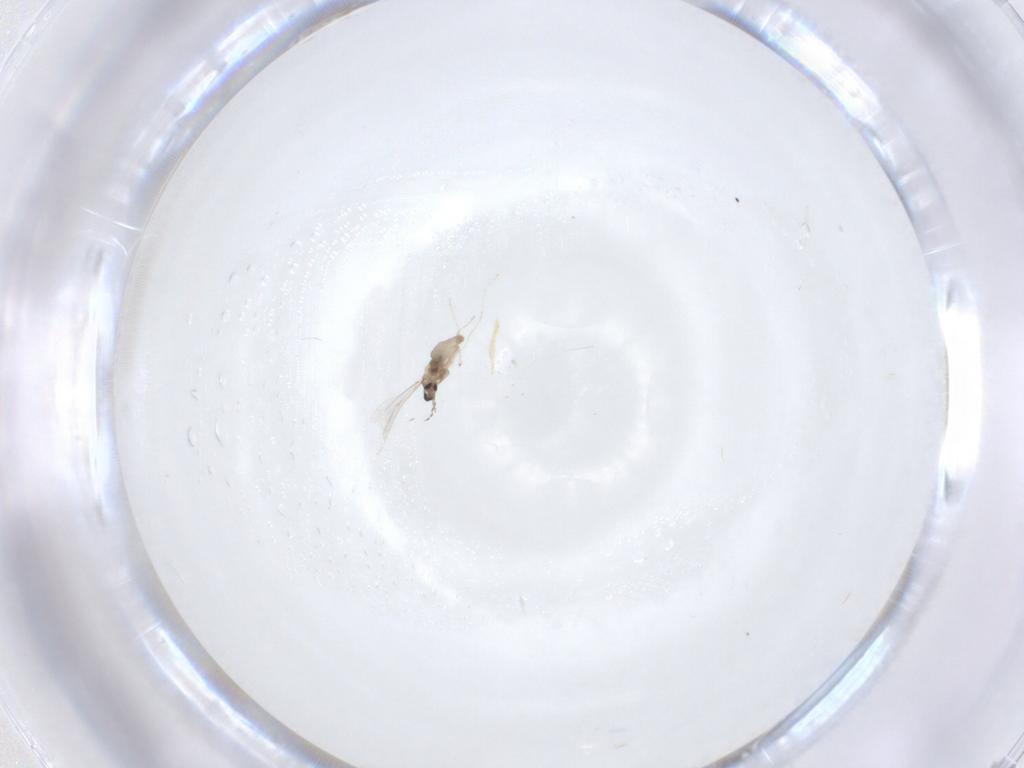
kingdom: Animalia
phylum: Arthropoda
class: Insecta
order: Diptera
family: Cecidomyiidae
